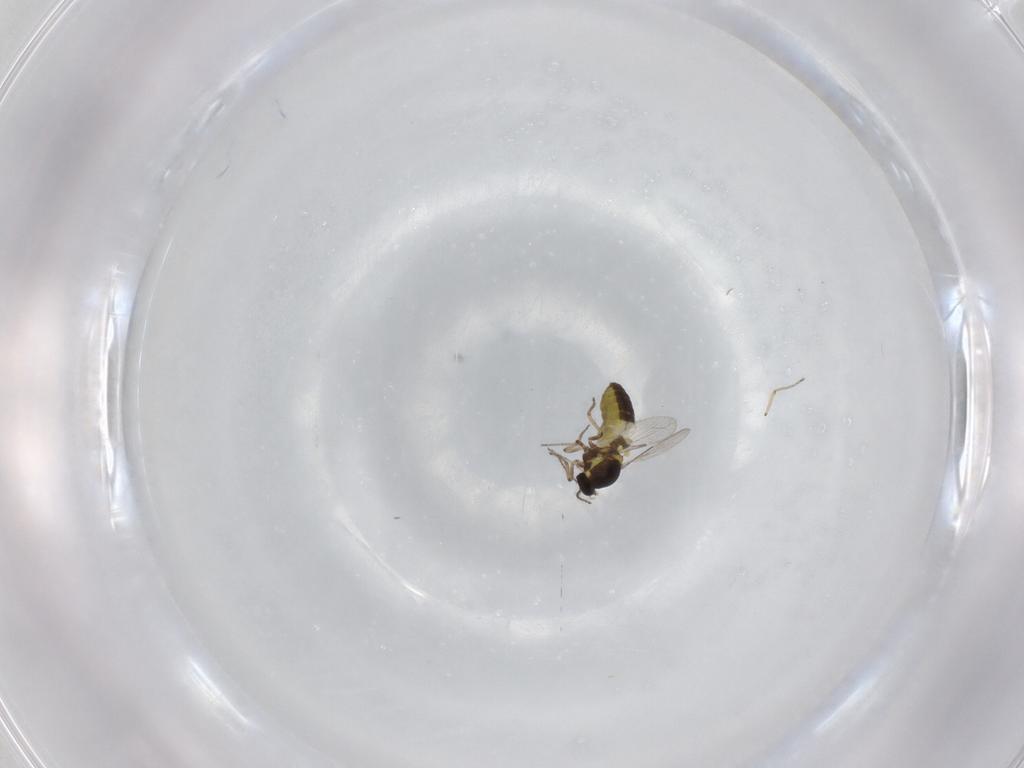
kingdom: Animalia
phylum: Arthropoda
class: Insecta
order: Diptera
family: Ceratopogonidae
